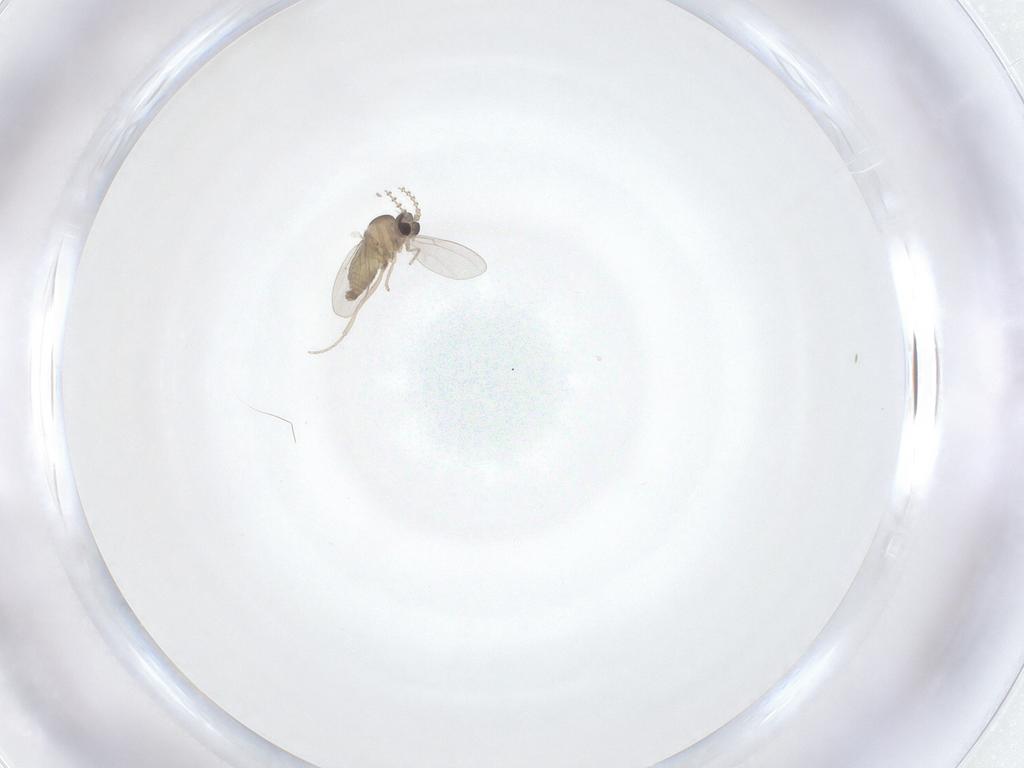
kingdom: Animalia
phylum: Arthropoda
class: Insecta
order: Diptera
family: Cecidomyiidae
